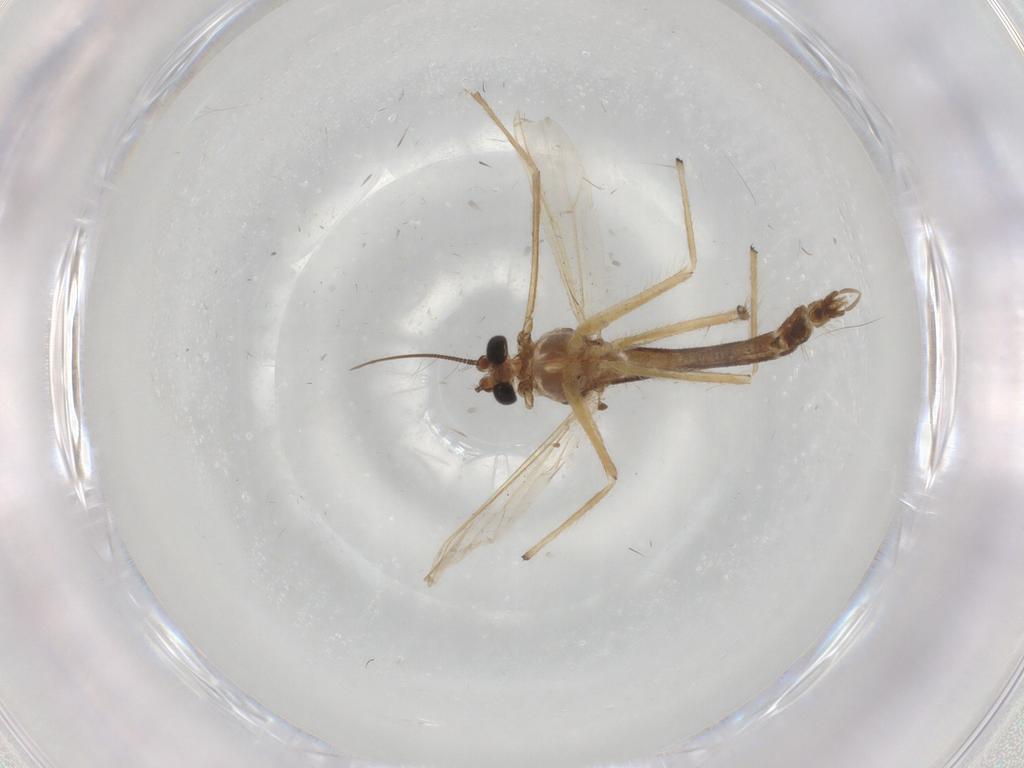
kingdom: Animalia
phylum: Arthropoda
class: Insecta
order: Diptera
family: Chironomidae
